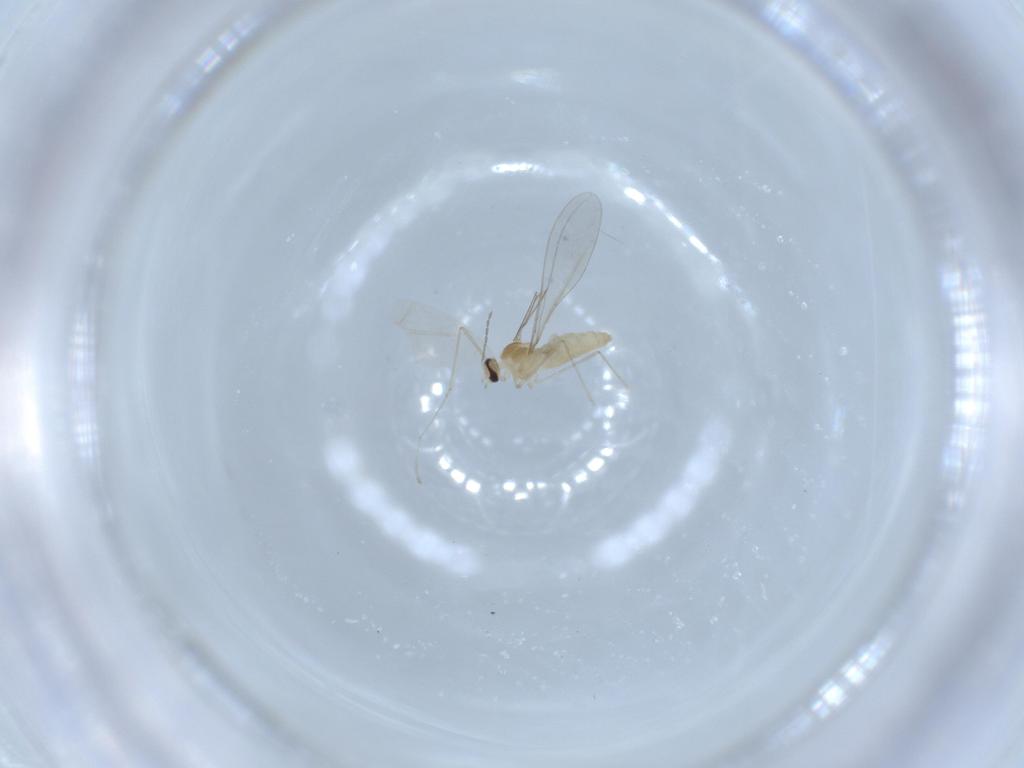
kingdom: Animalia
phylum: Arthropoda
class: Insecta
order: Diptera
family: Cecidomyiidae
